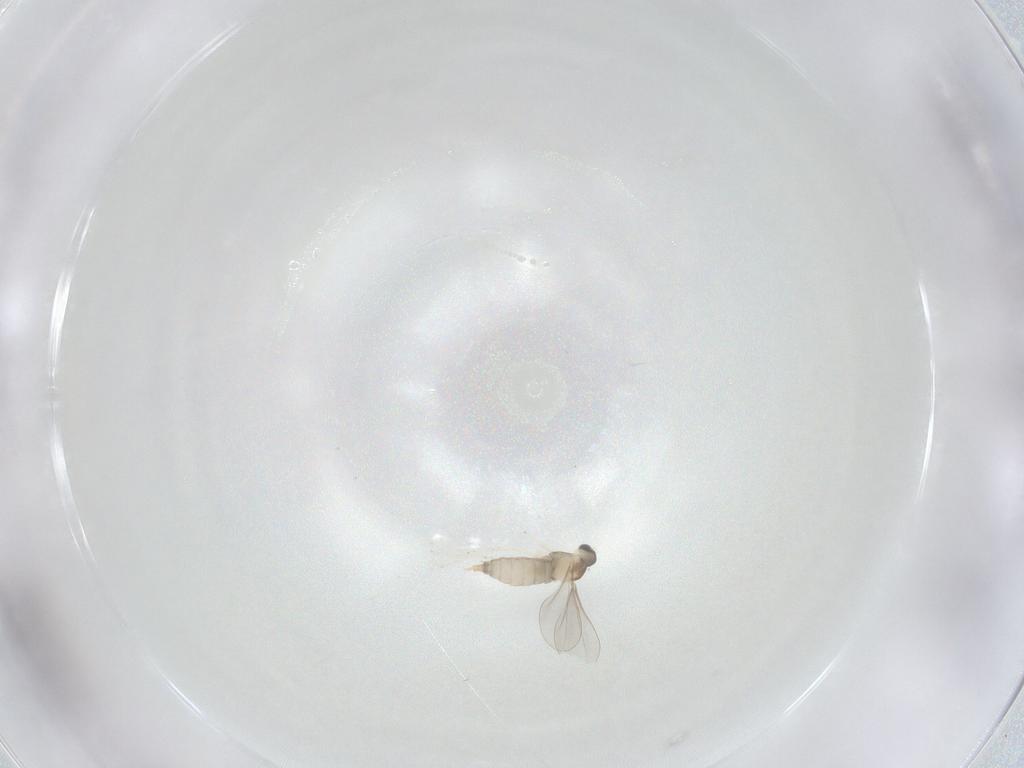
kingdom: Animalia
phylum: Arthropoda
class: Insecta
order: Diptera
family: Cecidomyiidae
